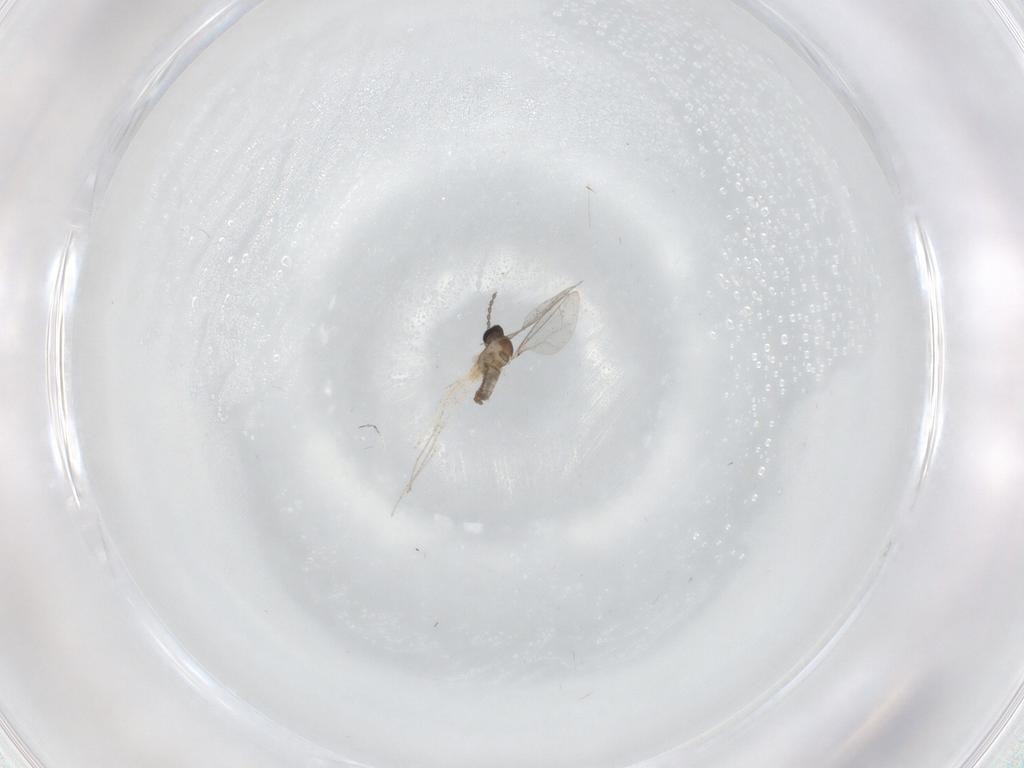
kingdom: Animalia
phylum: Arthropoda
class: Insecta
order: Diptera
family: Cecidomyiidae
